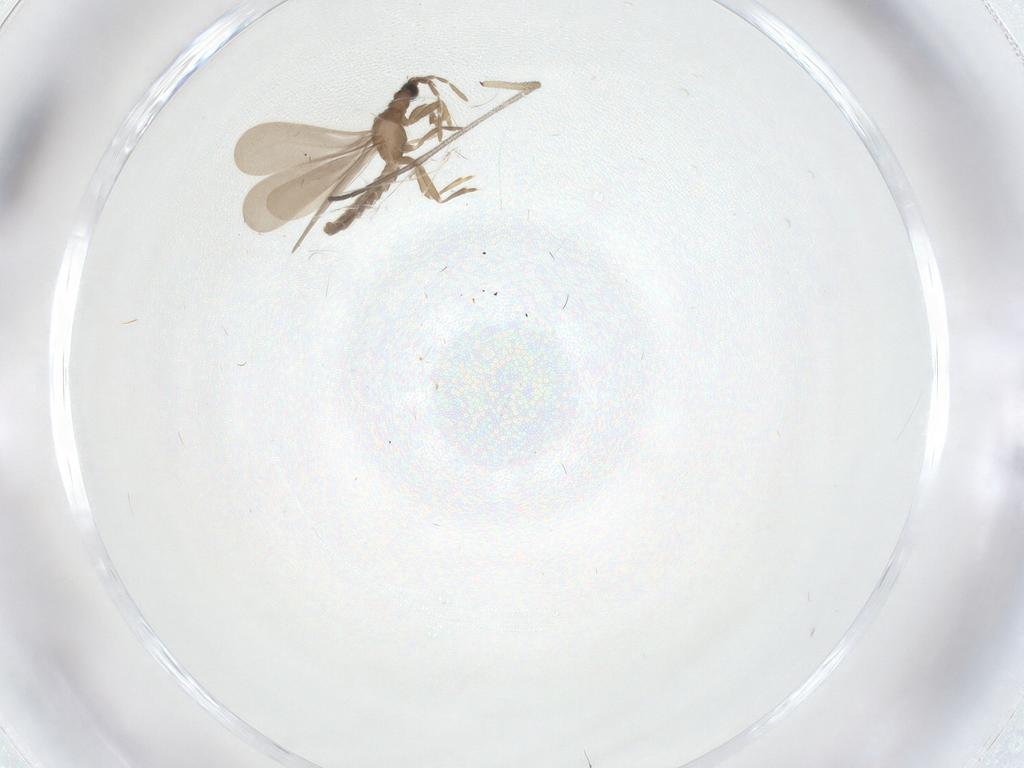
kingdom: Animalia
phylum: Arthropoda
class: Insecta
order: Hemiptera
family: Enicocephalidae
